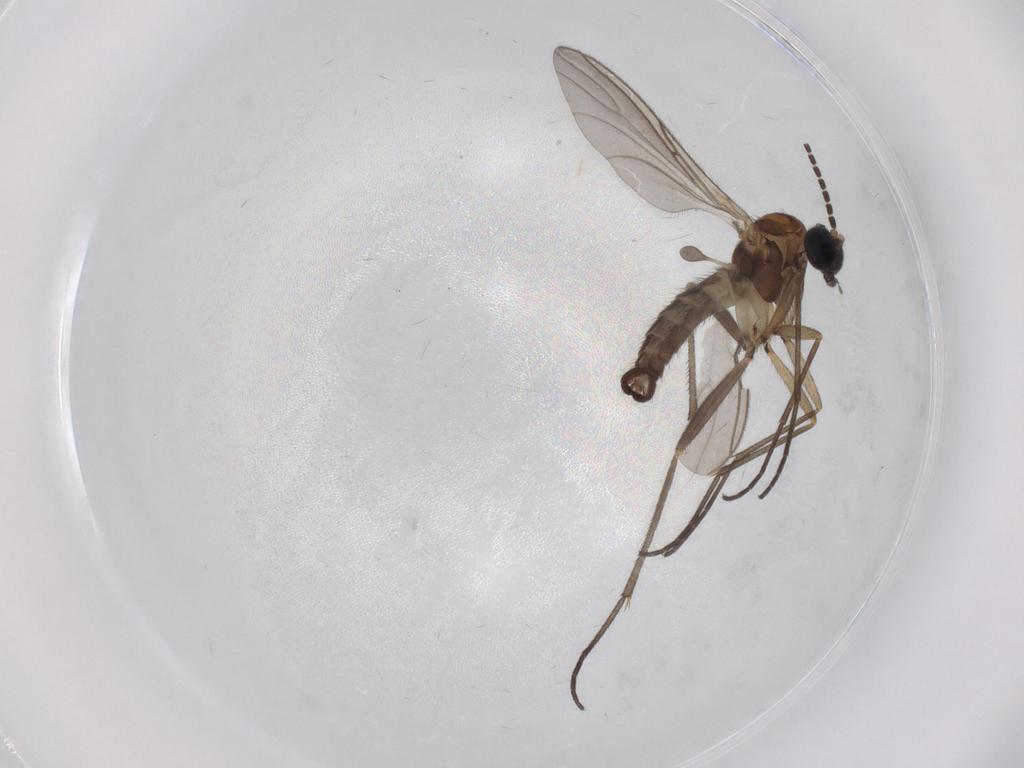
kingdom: Animalia
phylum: Arthropoda
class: Insecta
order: Diptera
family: Sciaridae
